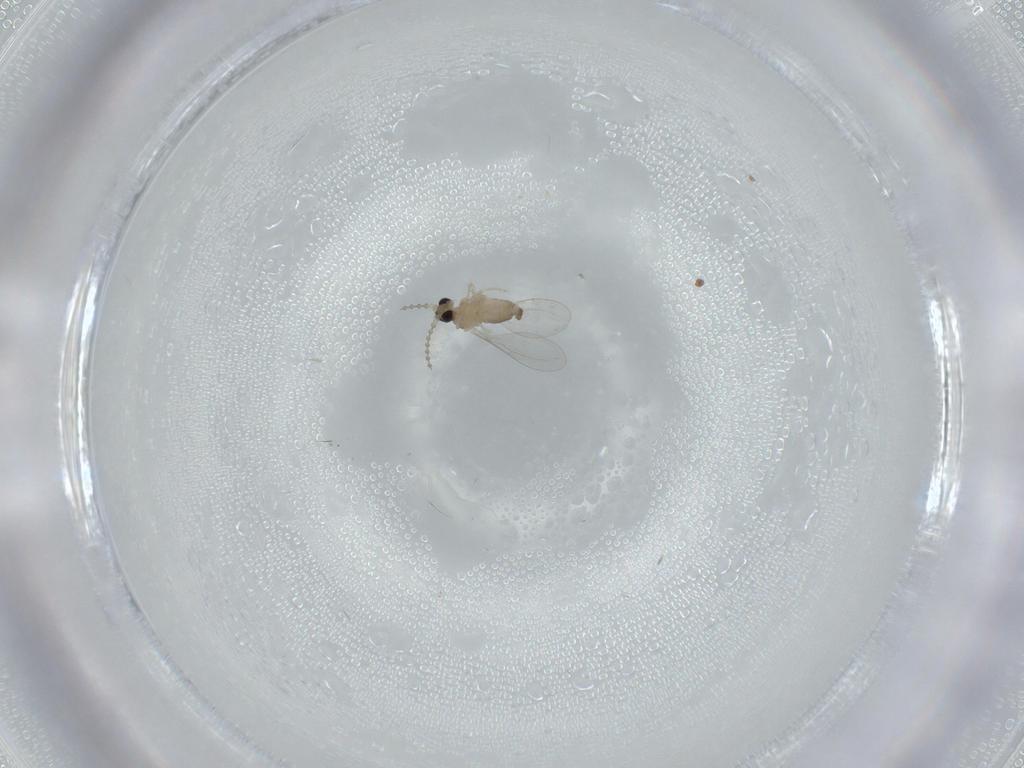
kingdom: Animalia
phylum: Arthropoda
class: Insecta
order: Diptera
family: Cecidomyiidae
